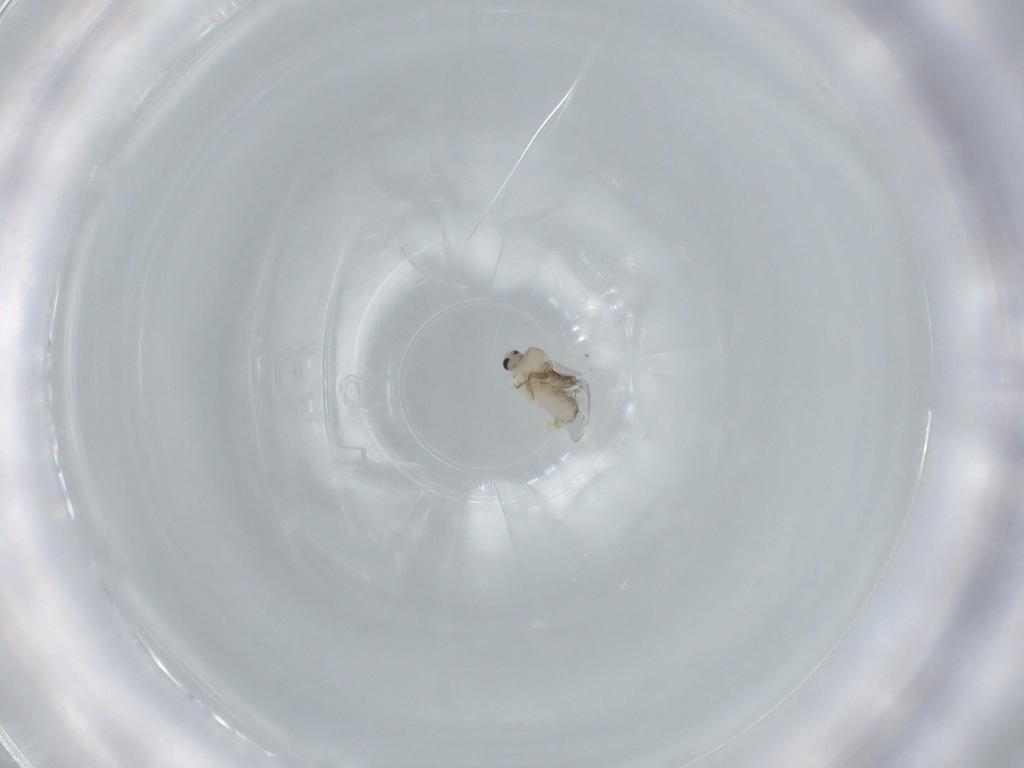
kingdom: Animalia
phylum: Arthropoda
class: Insecta
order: Diptera
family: Cecidomyiidae
